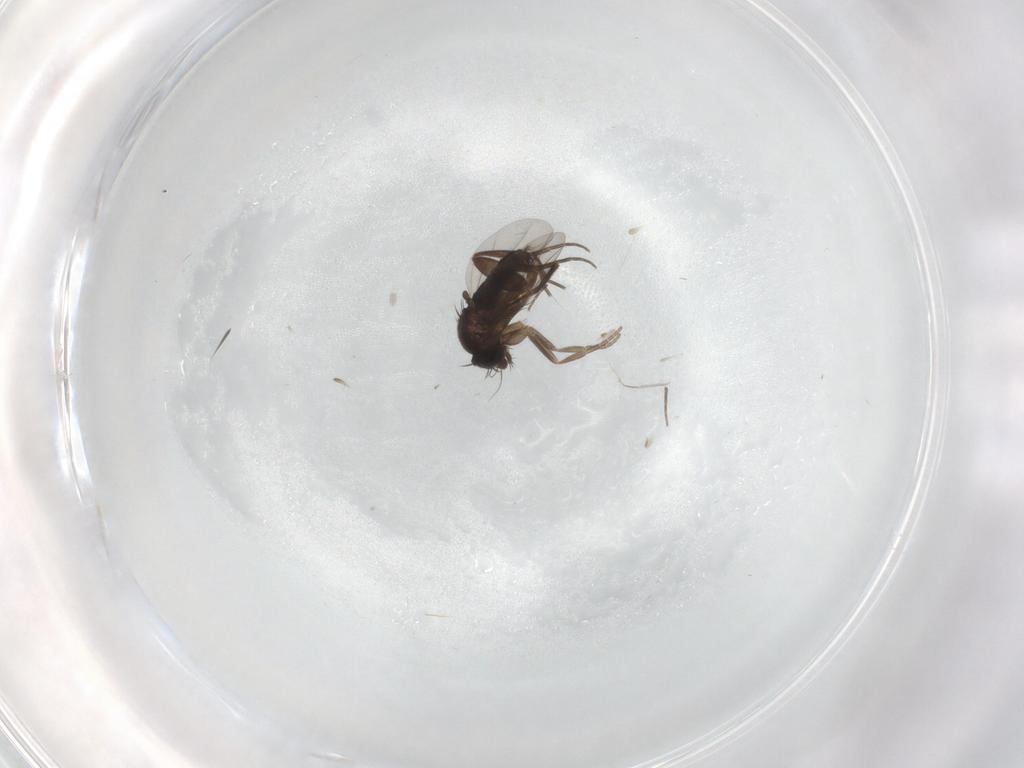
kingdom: Animalia
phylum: Arthropoda
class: Insecta
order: Diptera
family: Phoridae
